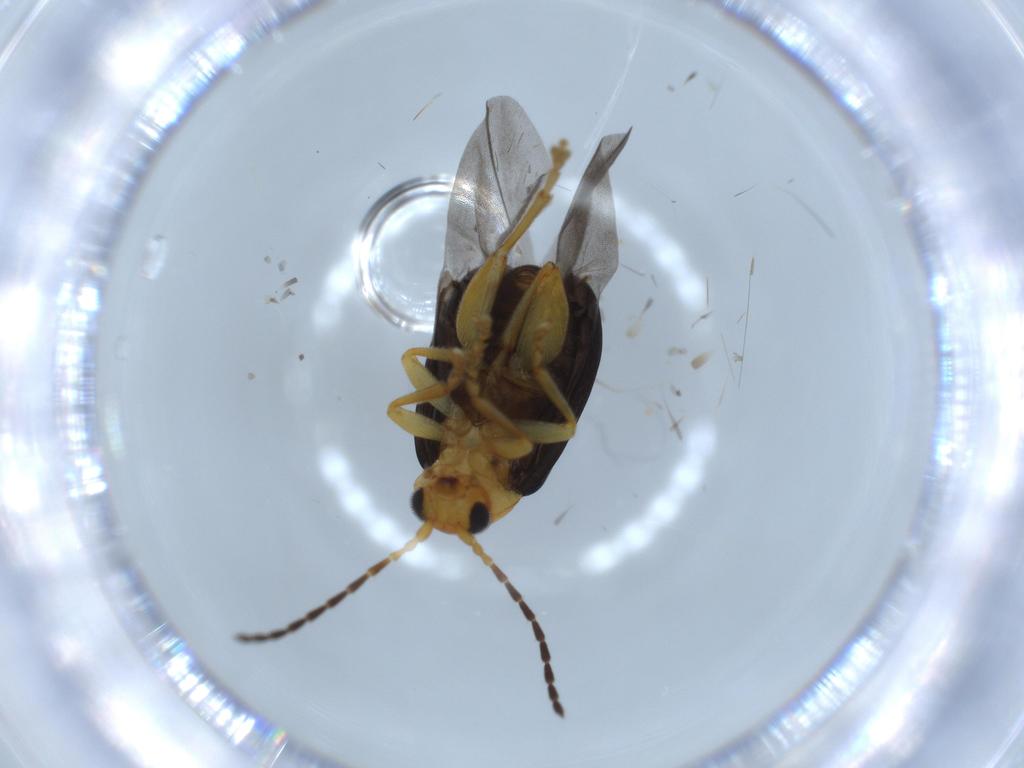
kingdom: Animalia
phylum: Arthropoda
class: Insecta
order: Coleoptera
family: Chrysomelidae
